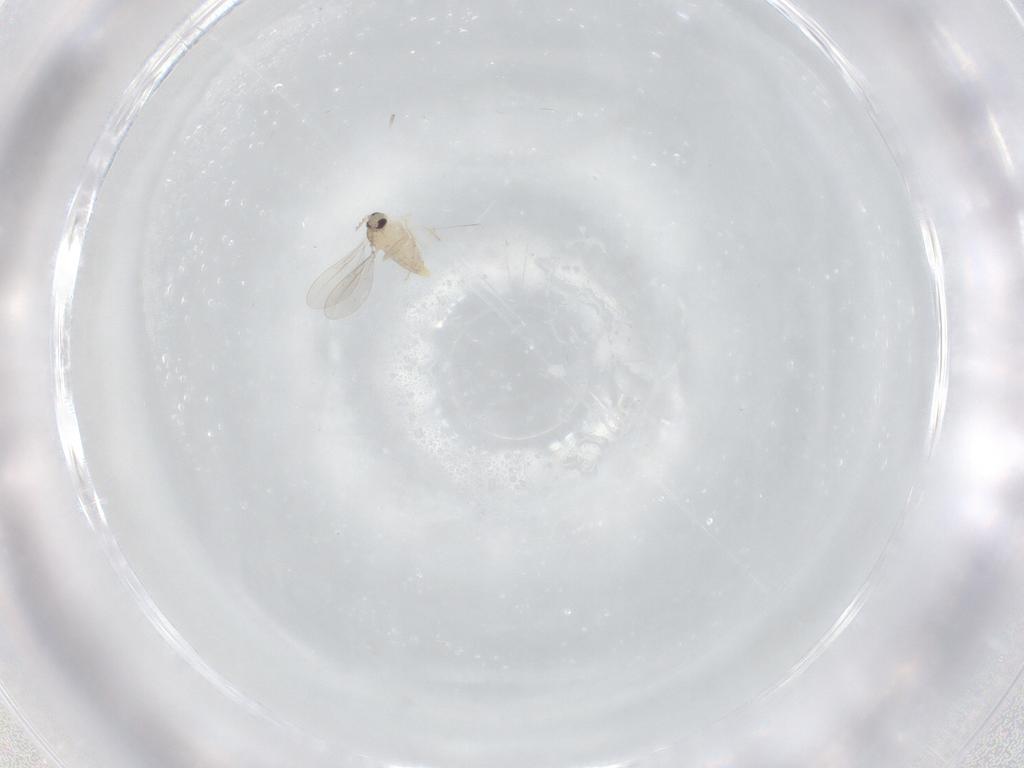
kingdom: Animalia
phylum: Arthropoda
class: Insecta
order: Diptera
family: Cecidomyiidae
